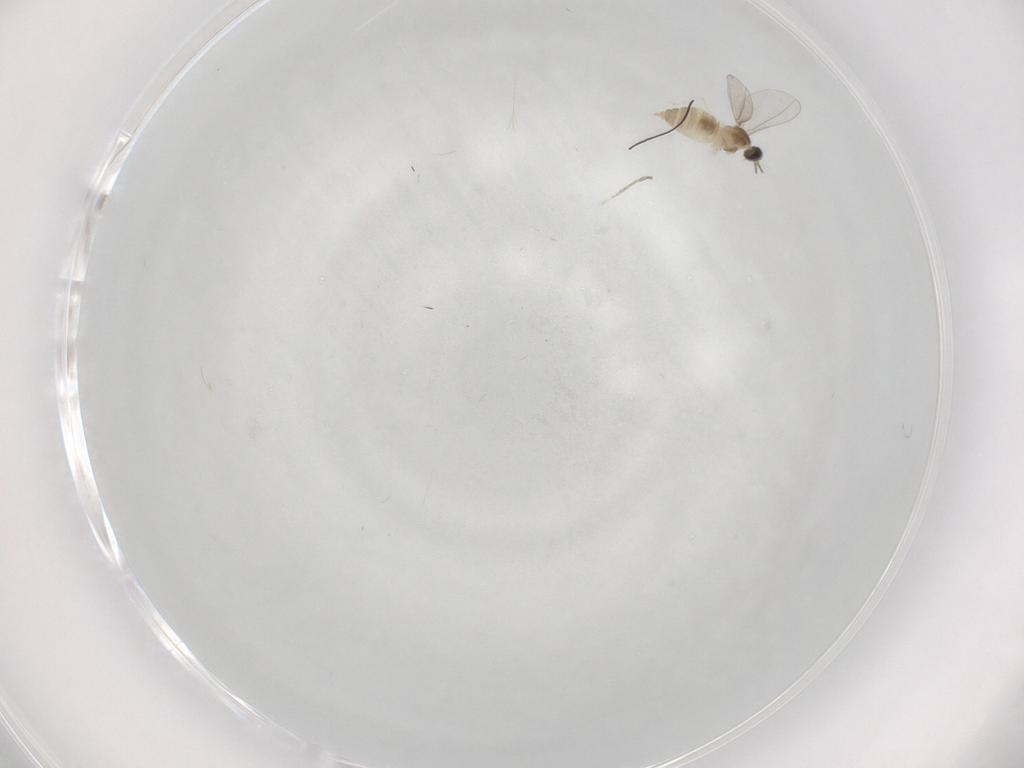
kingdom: Animalia
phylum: Arthropoda
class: Insecta
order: Diptera
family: Cecidomyiidae
